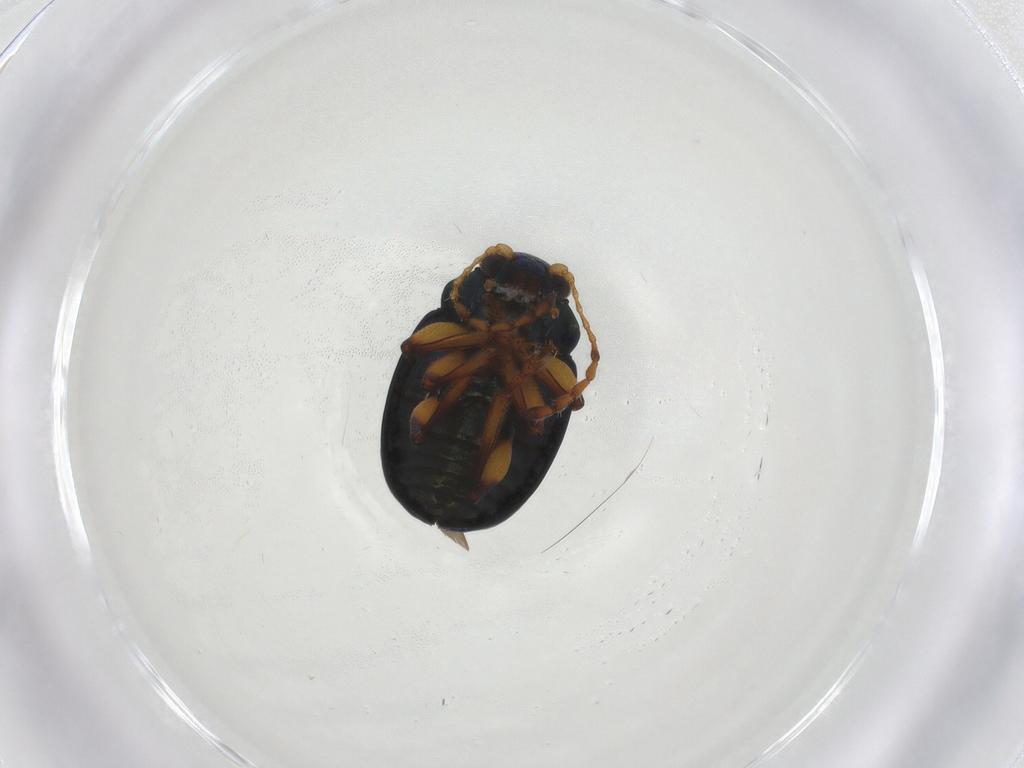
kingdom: Animalia
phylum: Arthropoda
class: Insecta
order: Coleoptera
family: Chrysomelidae
